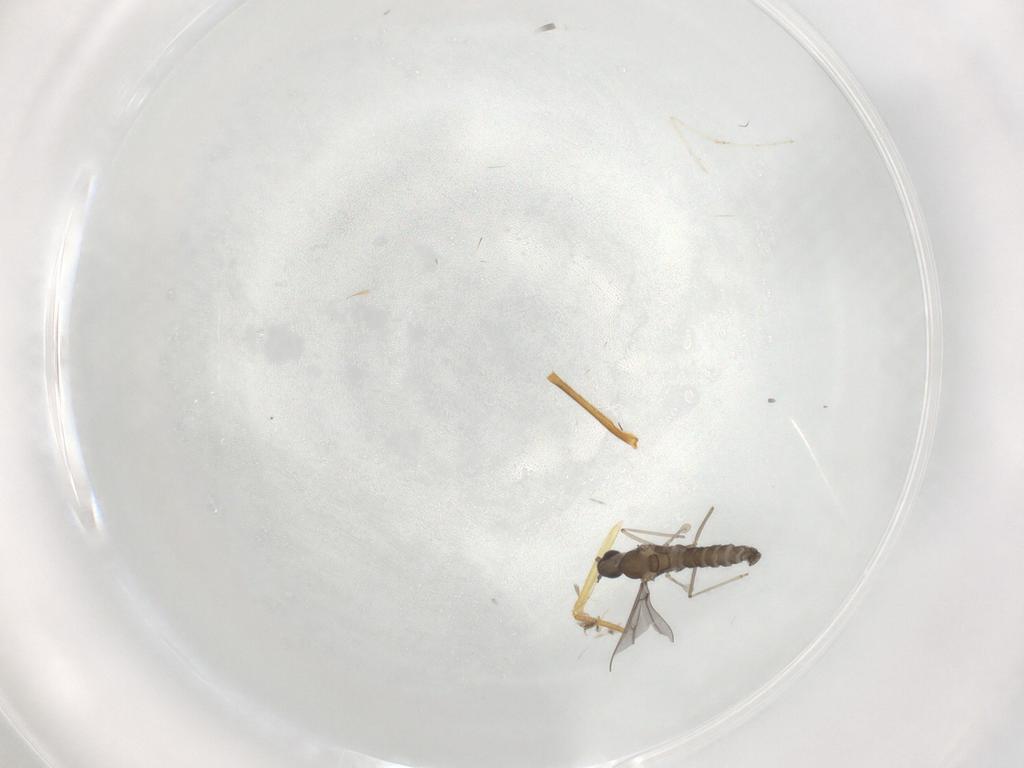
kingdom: Animalia
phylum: Arthropoda
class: Insecta
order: Diptera
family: Cecidomyiidae
